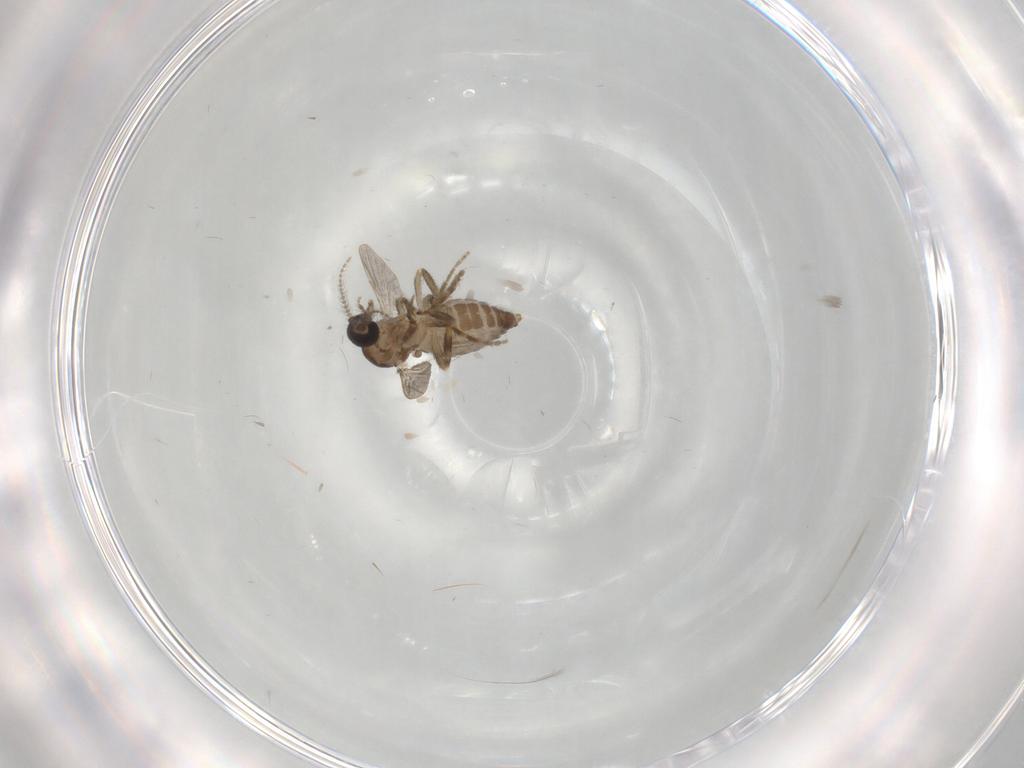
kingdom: Animalia
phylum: Arthropoda
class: Insecta
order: Diptera
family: Ceratopogonidae
